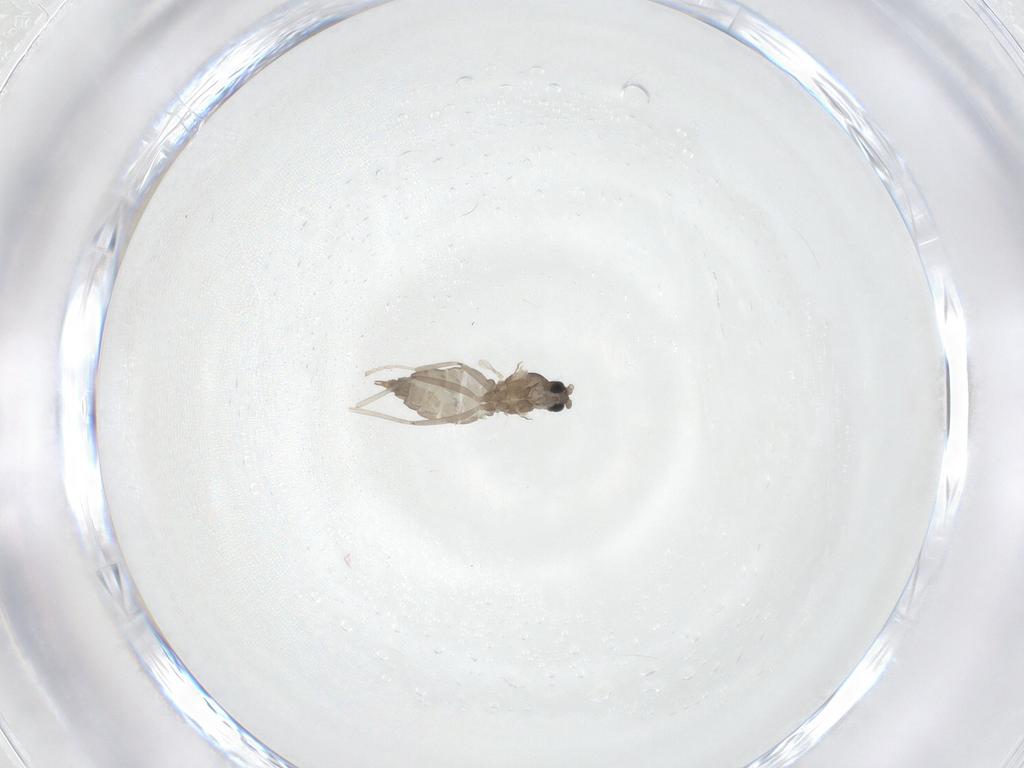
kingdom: Animalia
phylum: Arthropoda
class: Insecta
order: Diptera
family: Cecidomyiidae
